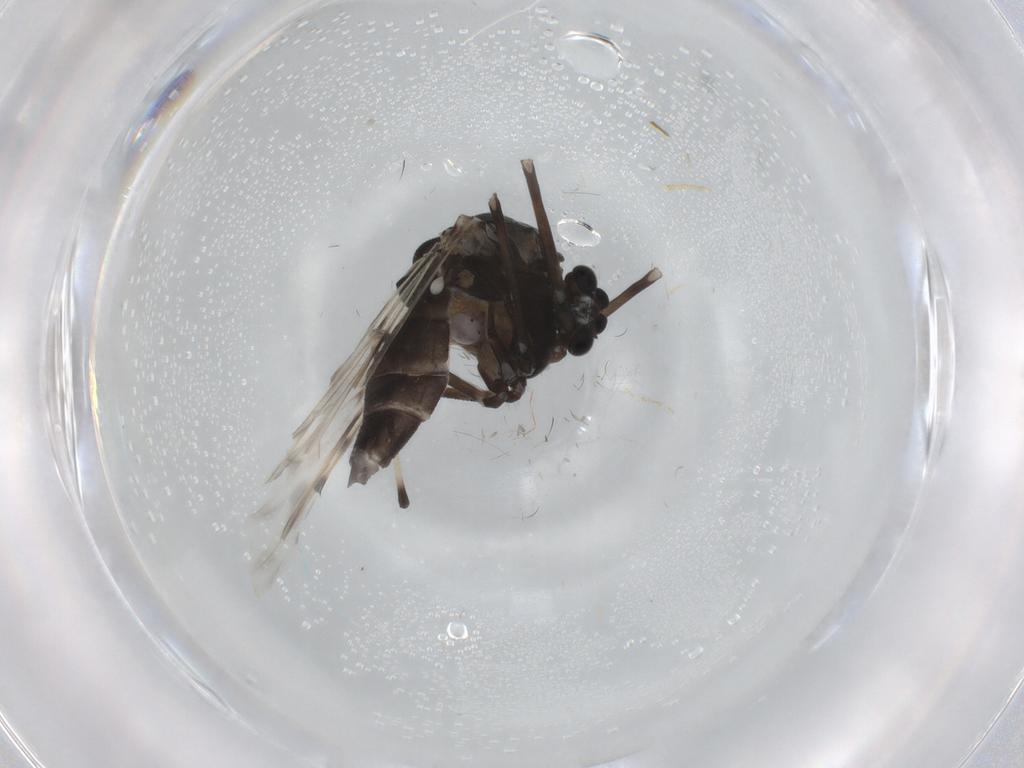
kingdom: Animalia
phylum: Arthropoda
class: Insecta
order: Diptera
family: Chironomidae
